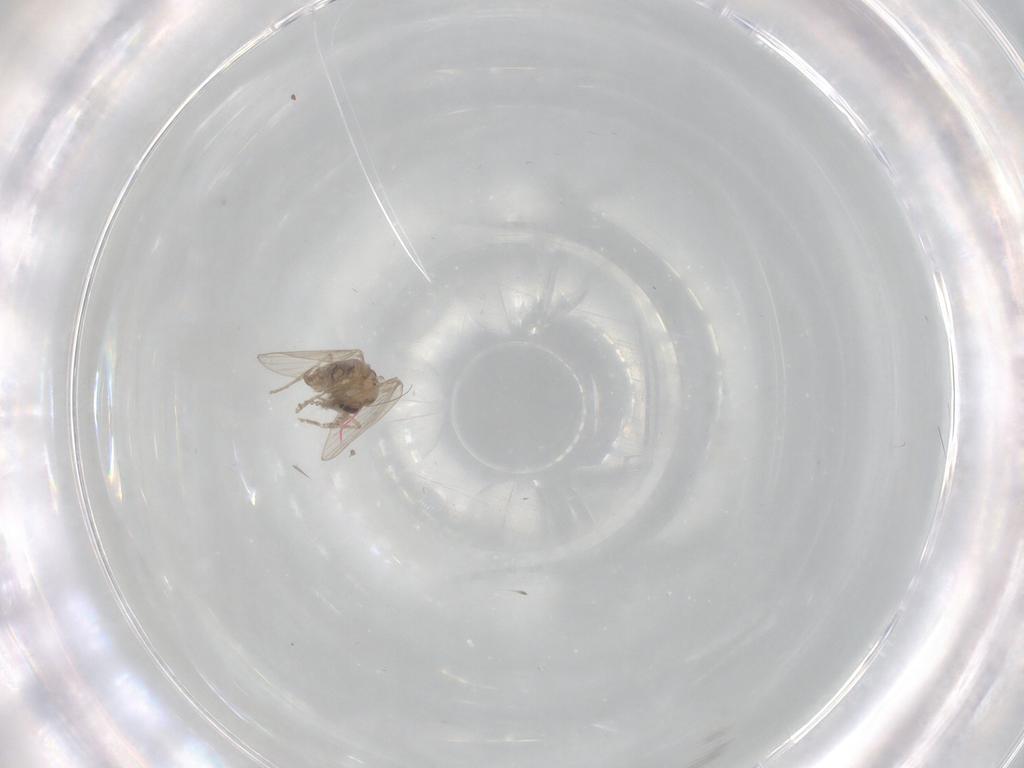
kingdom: Animalia
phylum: Arthropoda
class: Insecta
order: Diptera
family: Psychodidae
